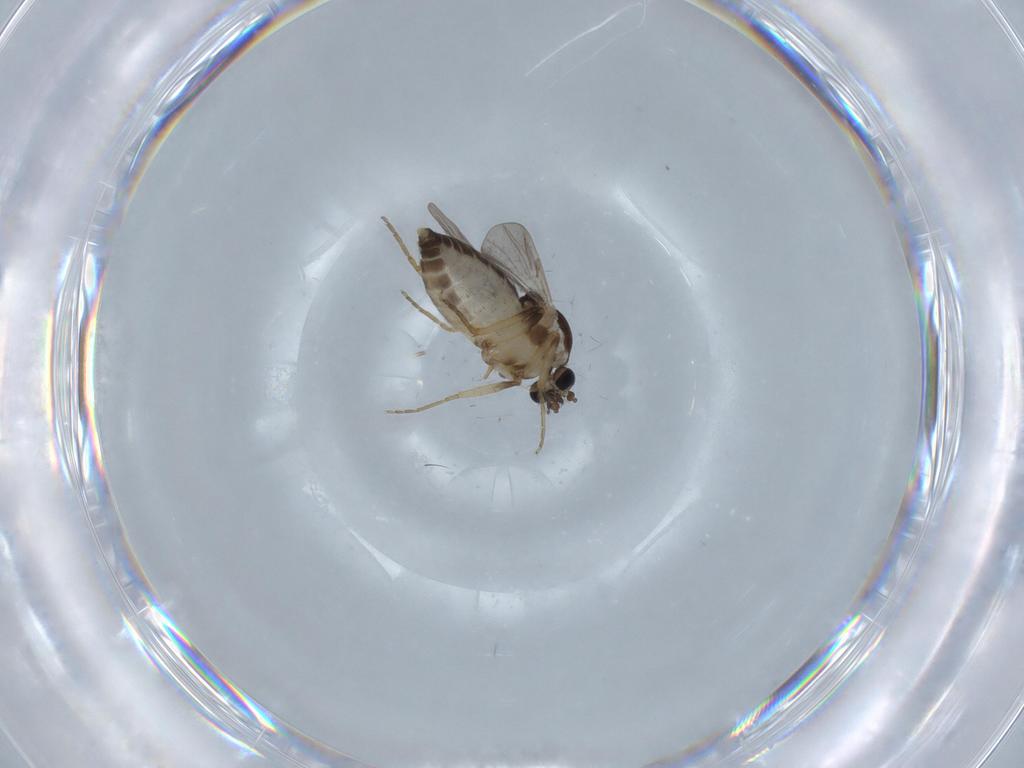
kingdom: Animalia
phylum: Arthropoda
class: Insecta
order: Diptera
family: Ceratopogonidae
